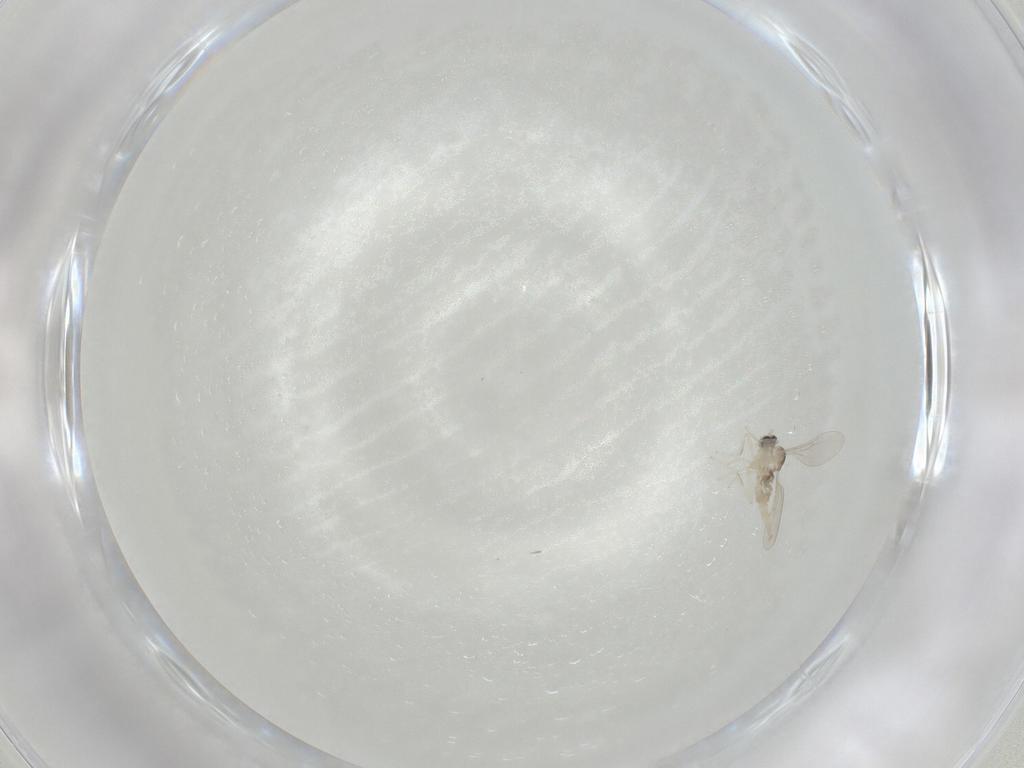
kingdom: Animalia
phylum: Arthropoda
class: Insecta
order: Diptera
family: Cecidomyiidae
